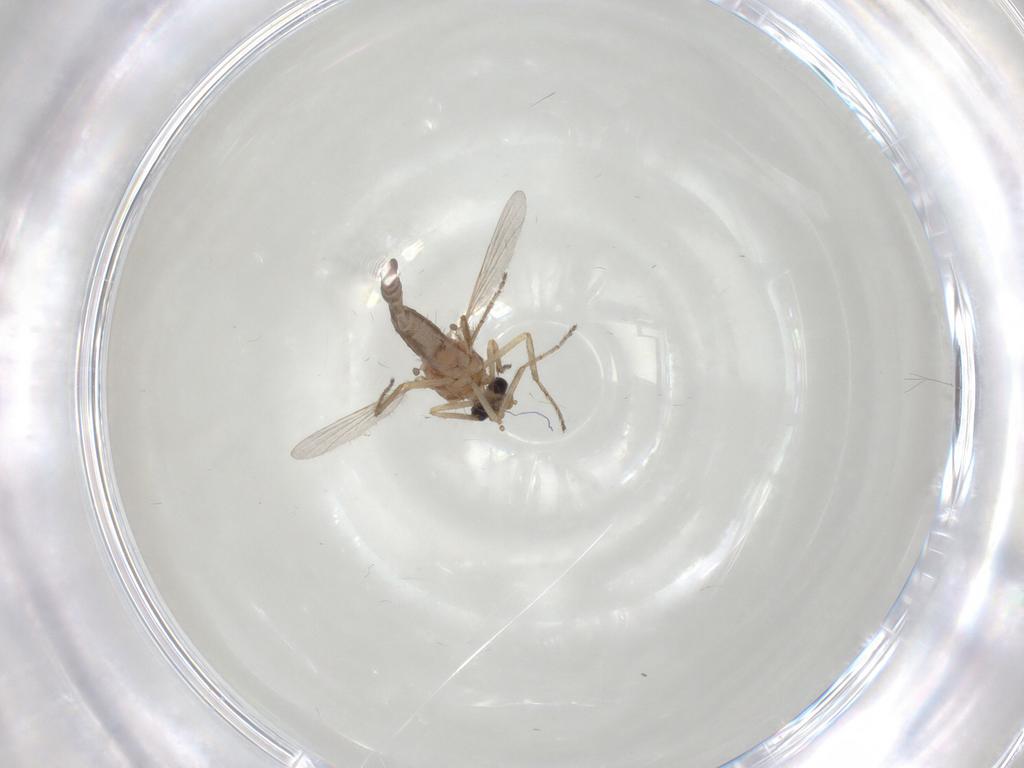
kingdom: Animalia
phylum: Arthropoda
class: Insecta
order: Diptera
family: Ceratopogonidae
